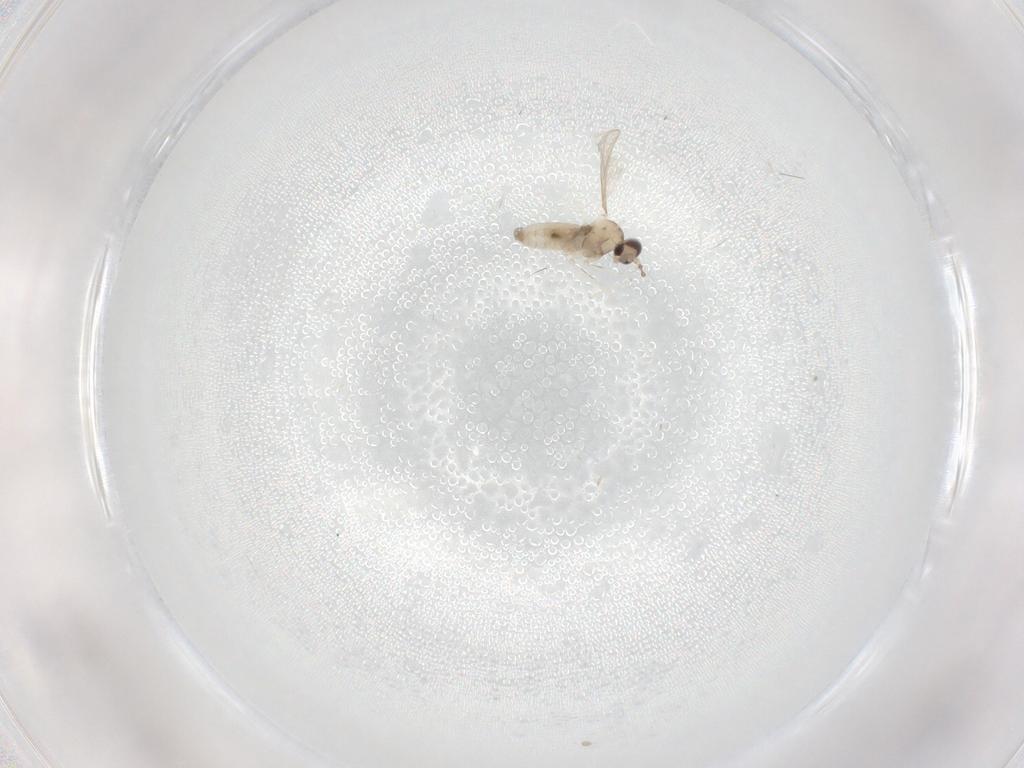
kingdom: Animalia
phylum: Arthropoda
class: Insecta
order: Diptera
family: Cecidomyiidae
